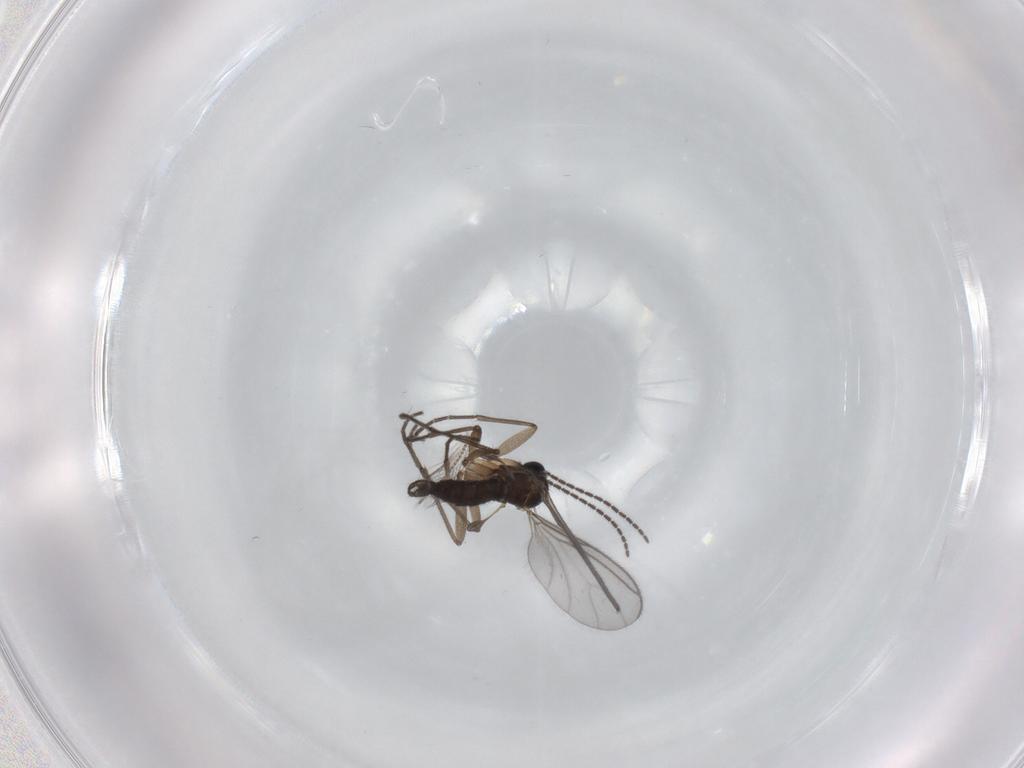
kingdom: Animalia
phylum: Arthropoda
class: Insecta
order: Diptera
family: Sciaridae
